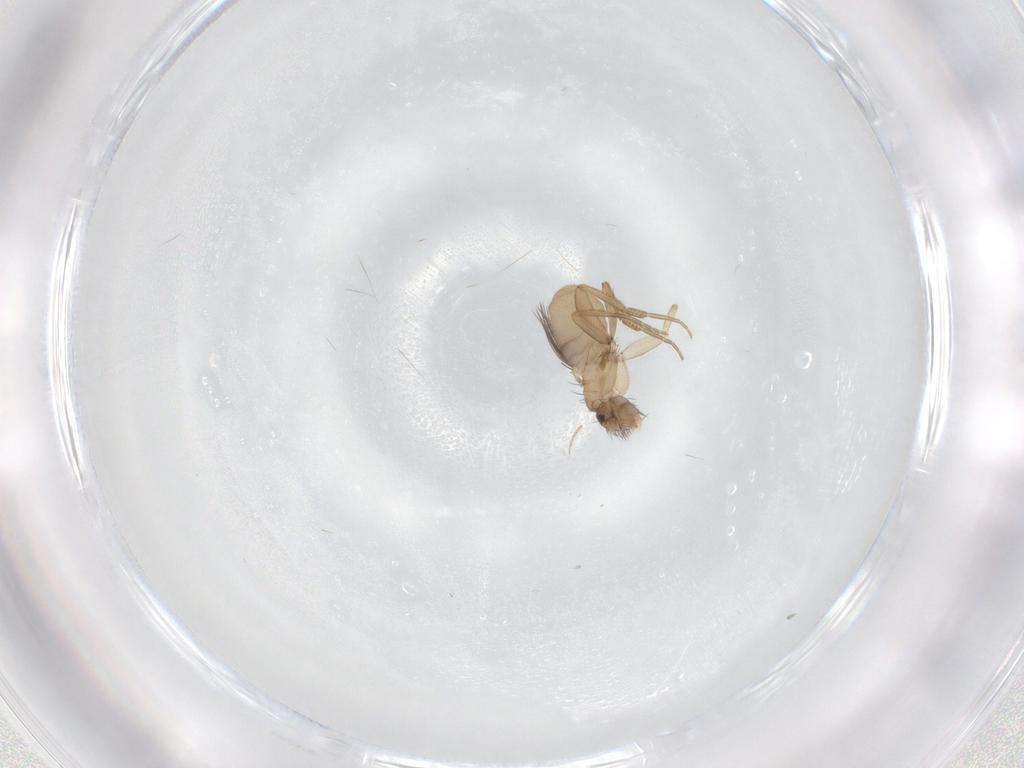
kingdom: Animalia
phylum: Arthropoda
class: Insecta
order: Diptera
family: Phoridae
